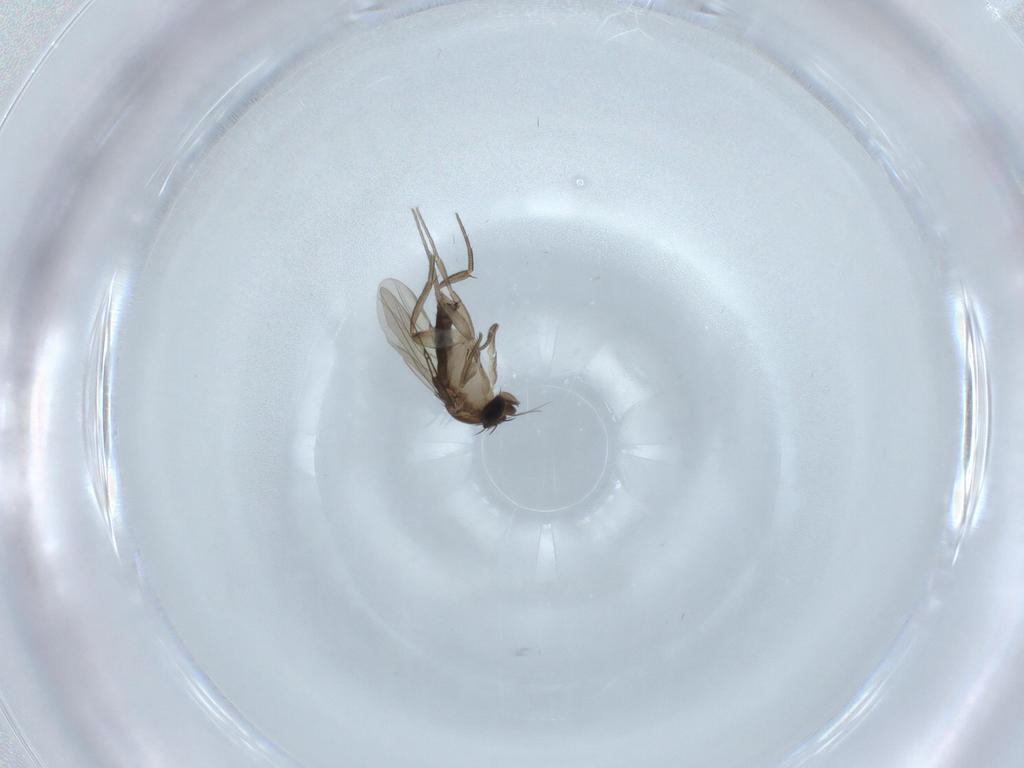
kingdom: Animalia
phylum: Arthropoda
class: Insecta
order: Diptera
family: Phoridae
